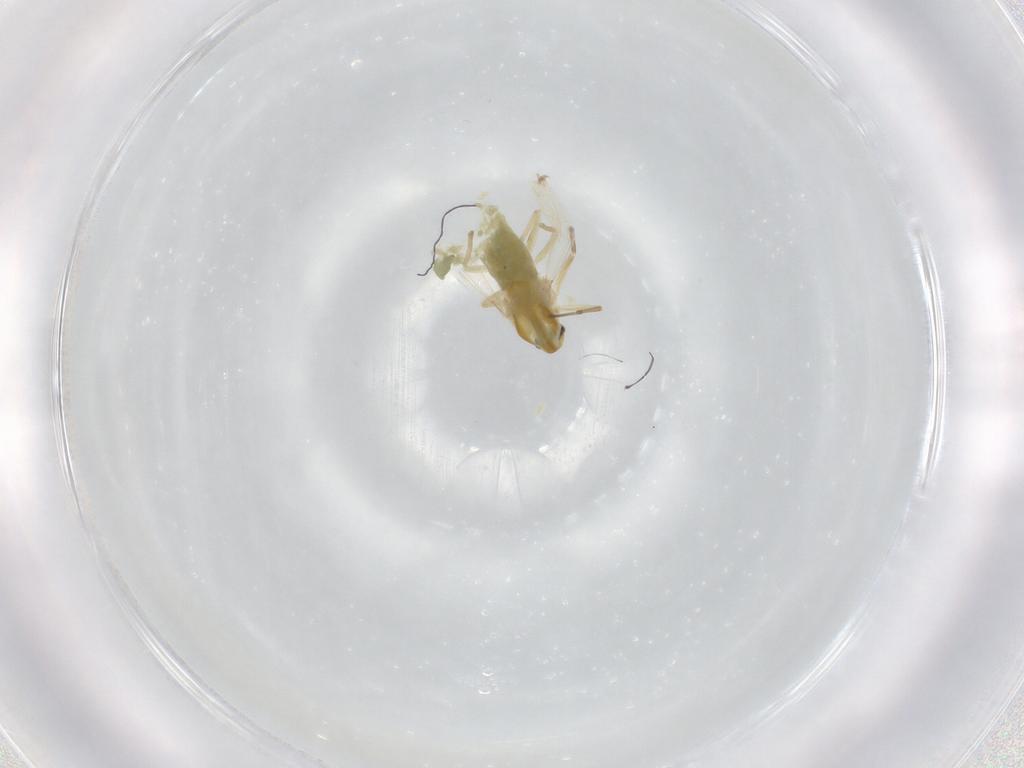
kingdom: Animalia
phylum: Arthropoda
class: Insecta
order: Diptera
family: Chironomidae
